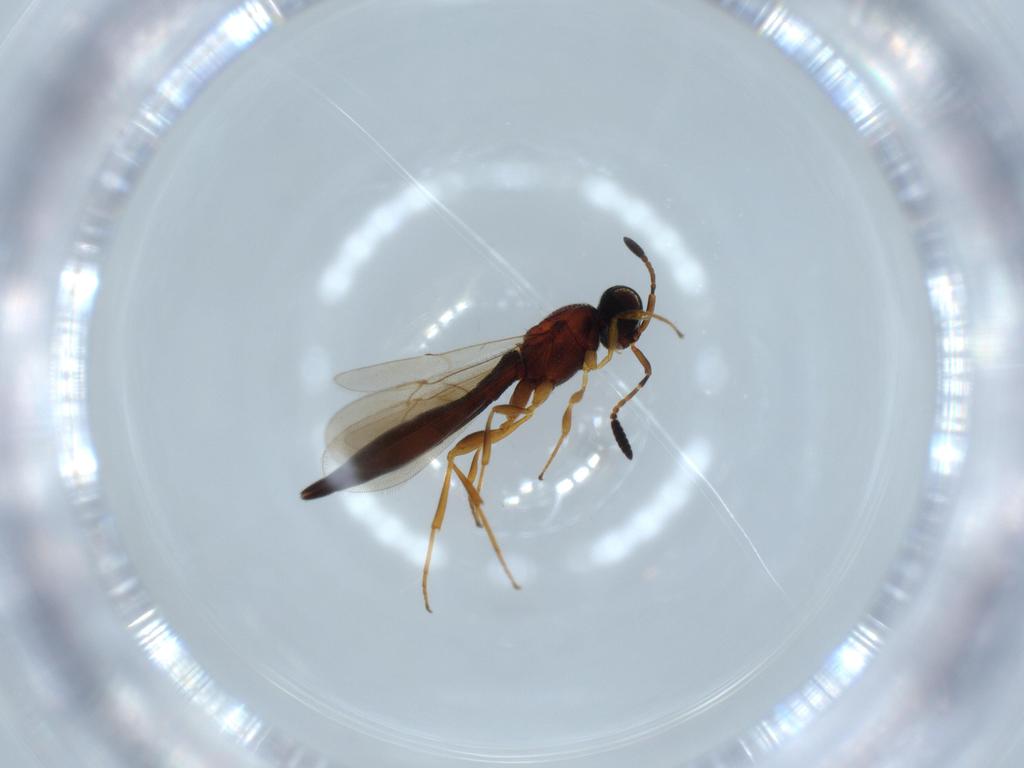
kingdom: Animalia
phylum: Arthropoda
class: Insecta
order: Hymenoptera
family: Scelionidae
